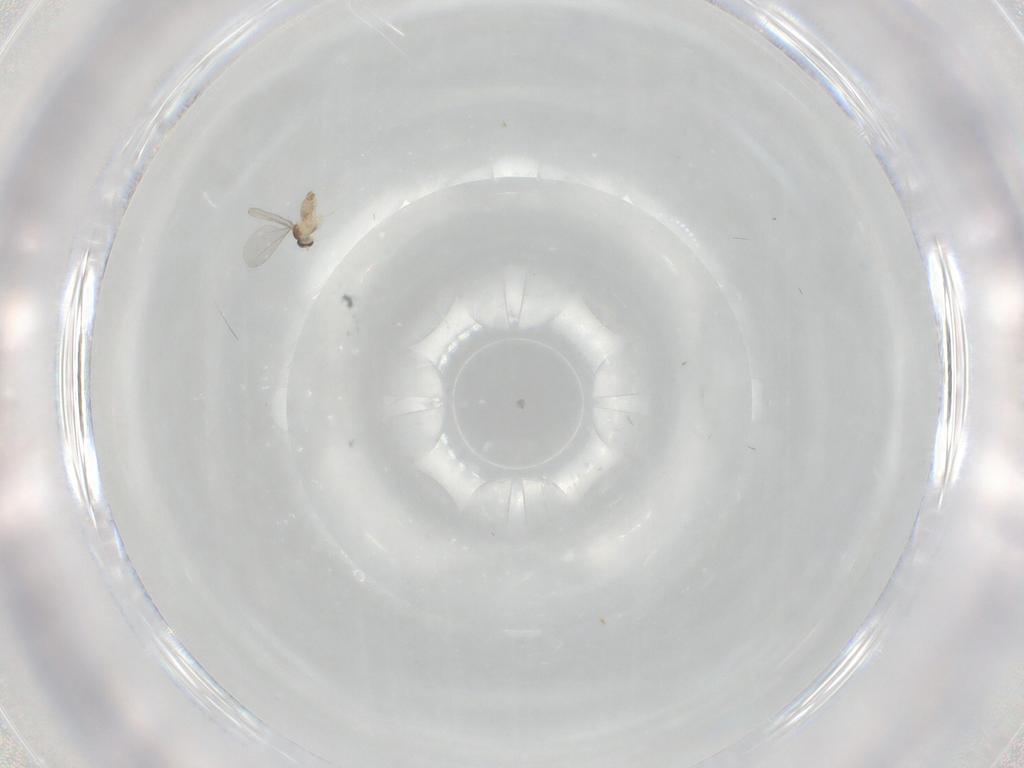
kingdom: Animalia
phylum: Arthropoda
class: Insecta
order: Diptera
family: Cecidomyiidae
